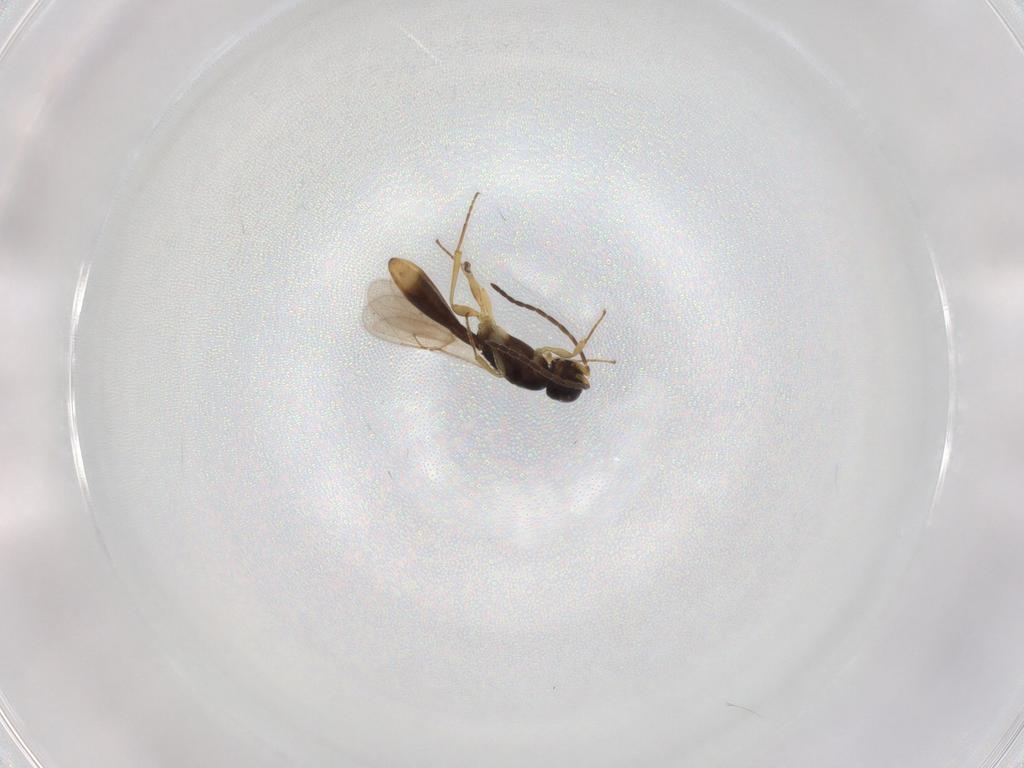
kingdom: Animalia
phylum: Arthropoda
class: Insecta
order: Hymenoptera
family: Scelionidae
